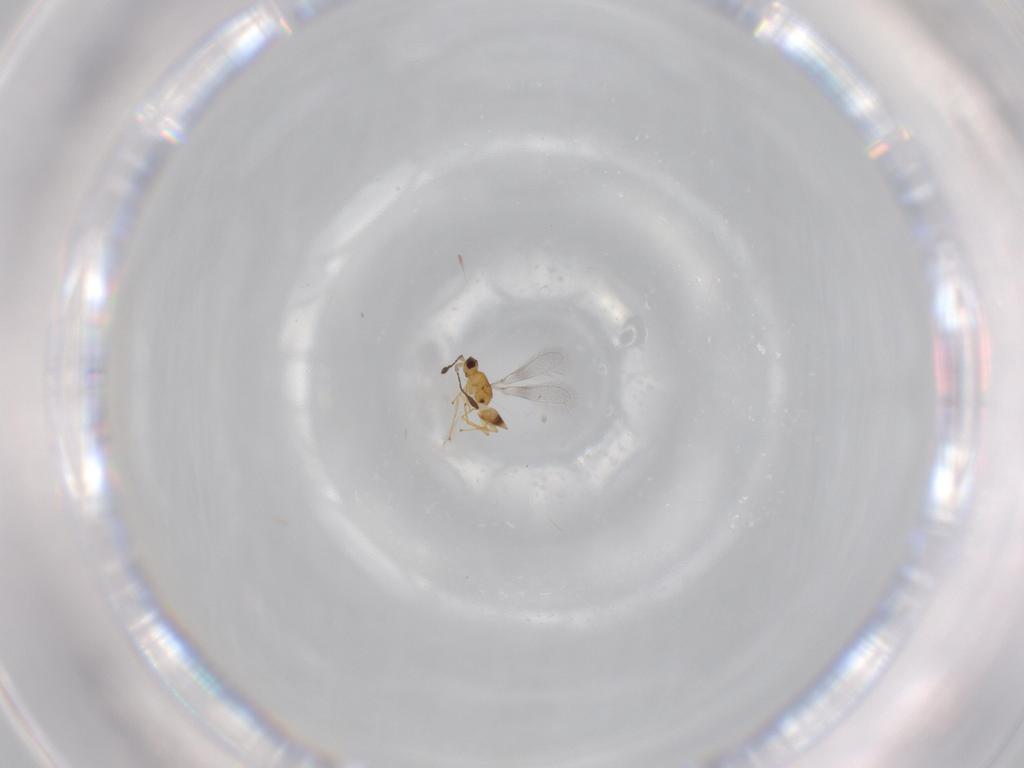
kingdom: Animalia
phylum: Arthropoda
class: Insecta
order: Hymenoptera
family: Mymaridae
